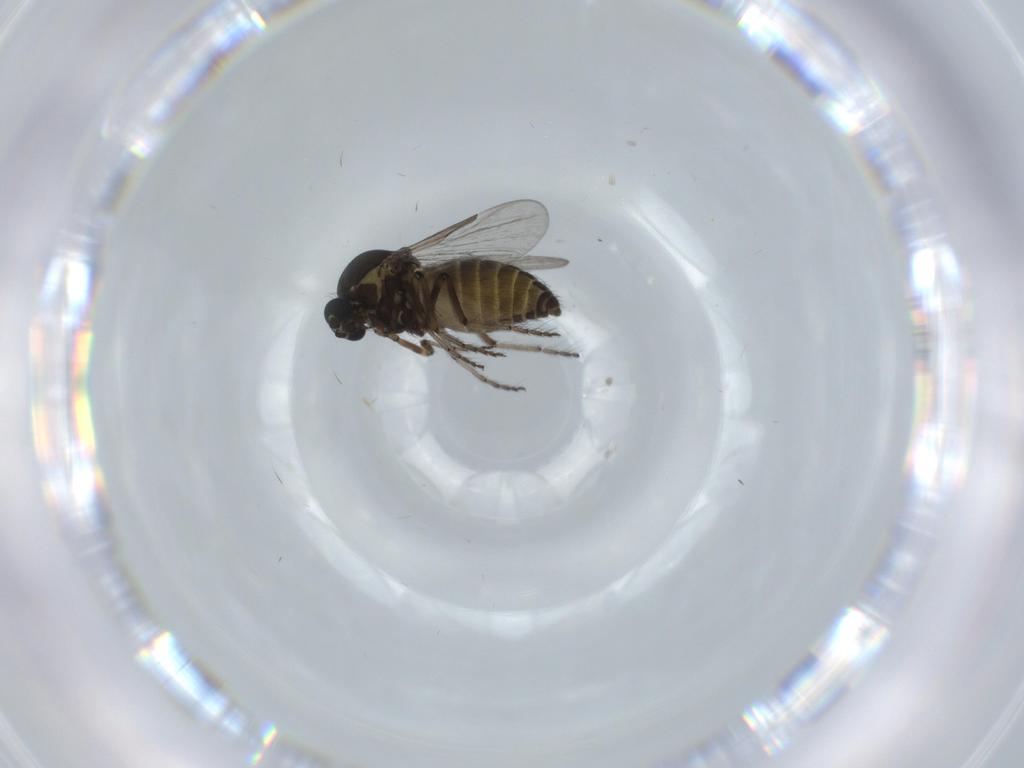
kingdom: Animalia
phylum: Arthropoda
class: Insecta
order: Diptera
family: Ceratopogonidae
